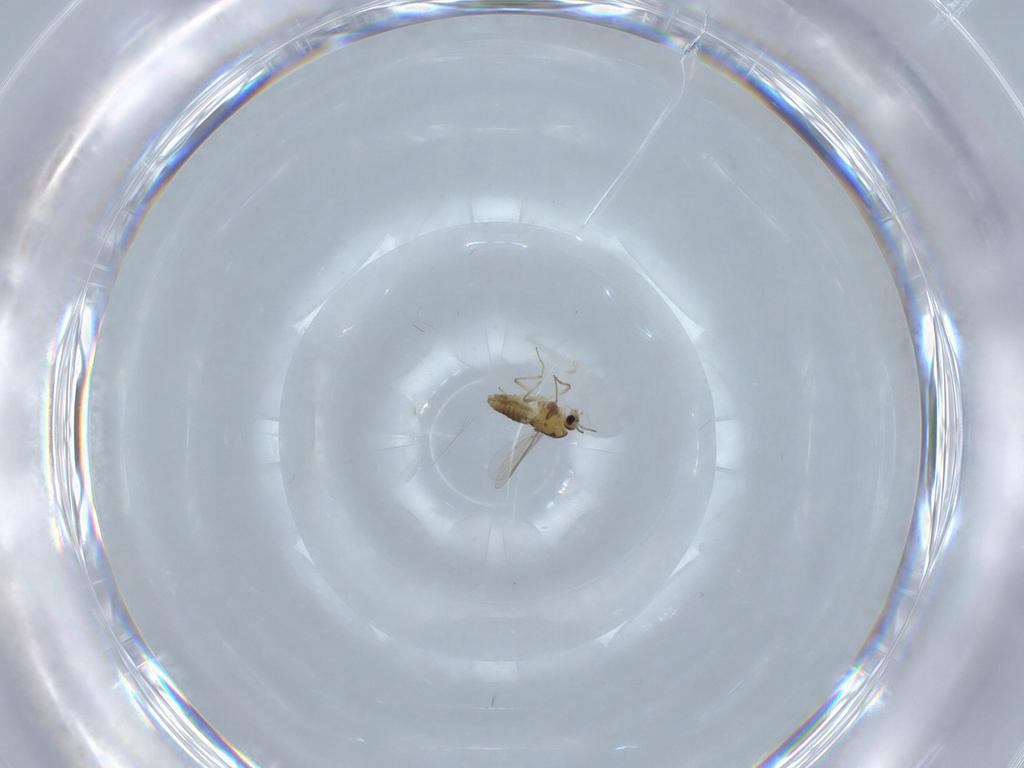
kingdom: Animalia
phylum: Arthropoda
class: Insecta
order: Diptera
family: Chironomidae
